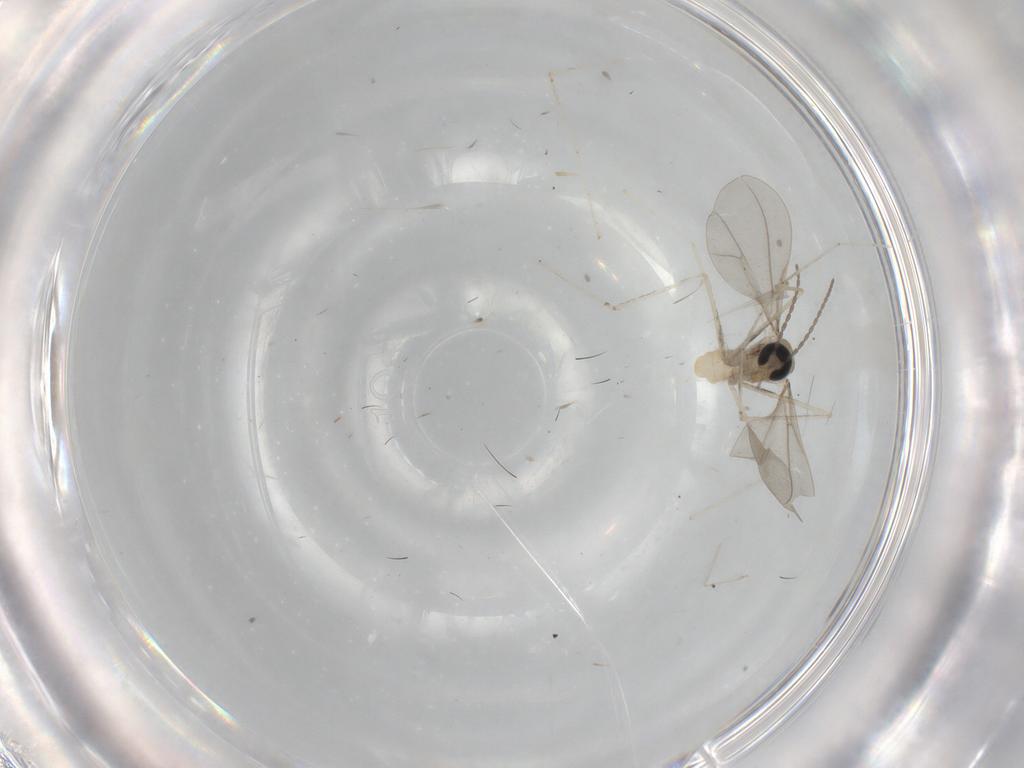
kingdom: Animalia
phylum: Arthropoda
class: Insecta
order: Diptera
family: Cecidomyiidae
